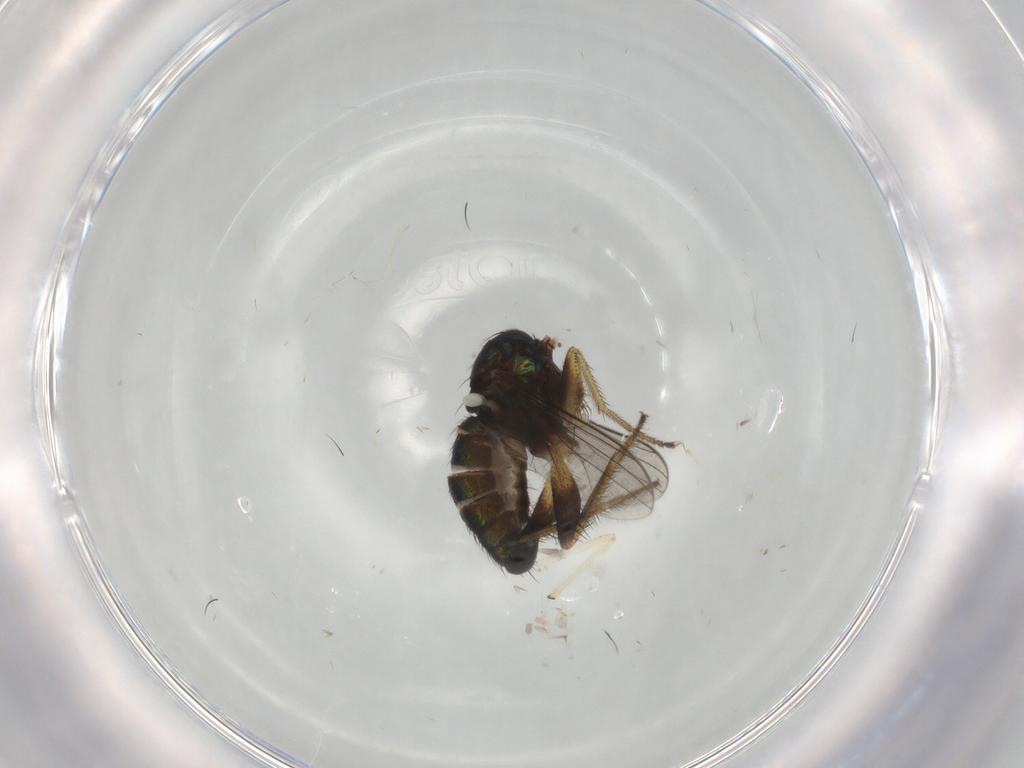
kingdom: Animalia
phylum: Arthropoda
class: Insecta
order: Diptera
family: Dolichopodidae
